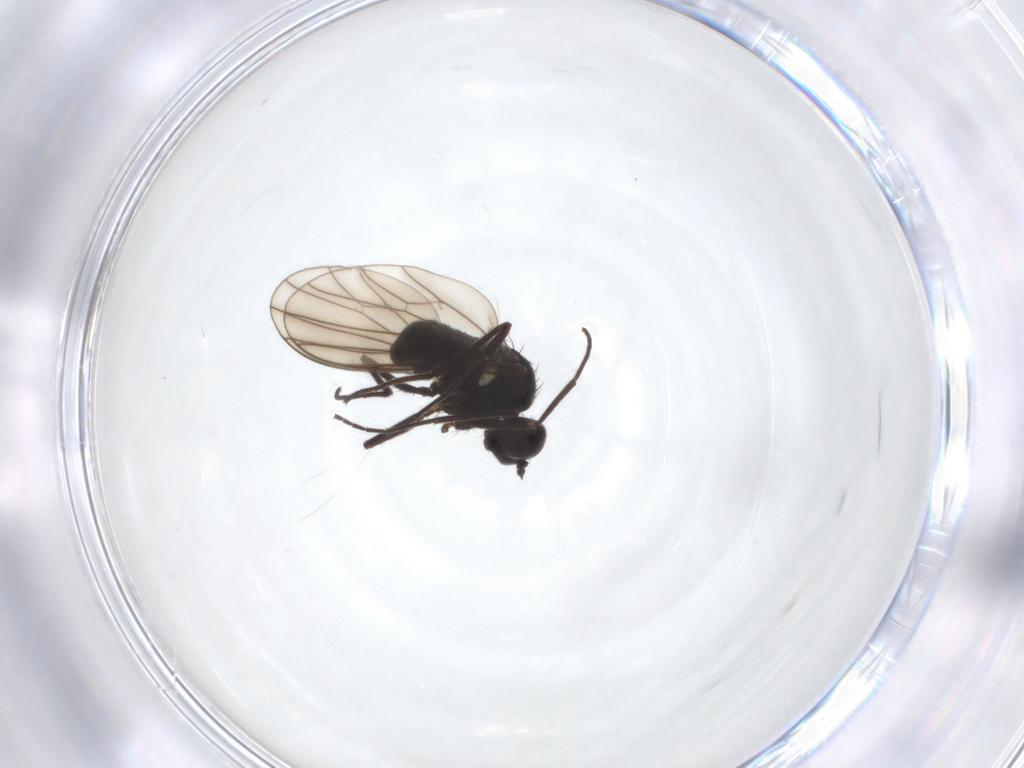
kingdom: Animalia
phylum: Arthropoda
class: Insecta
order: Diptera
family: Dolichopodidae
